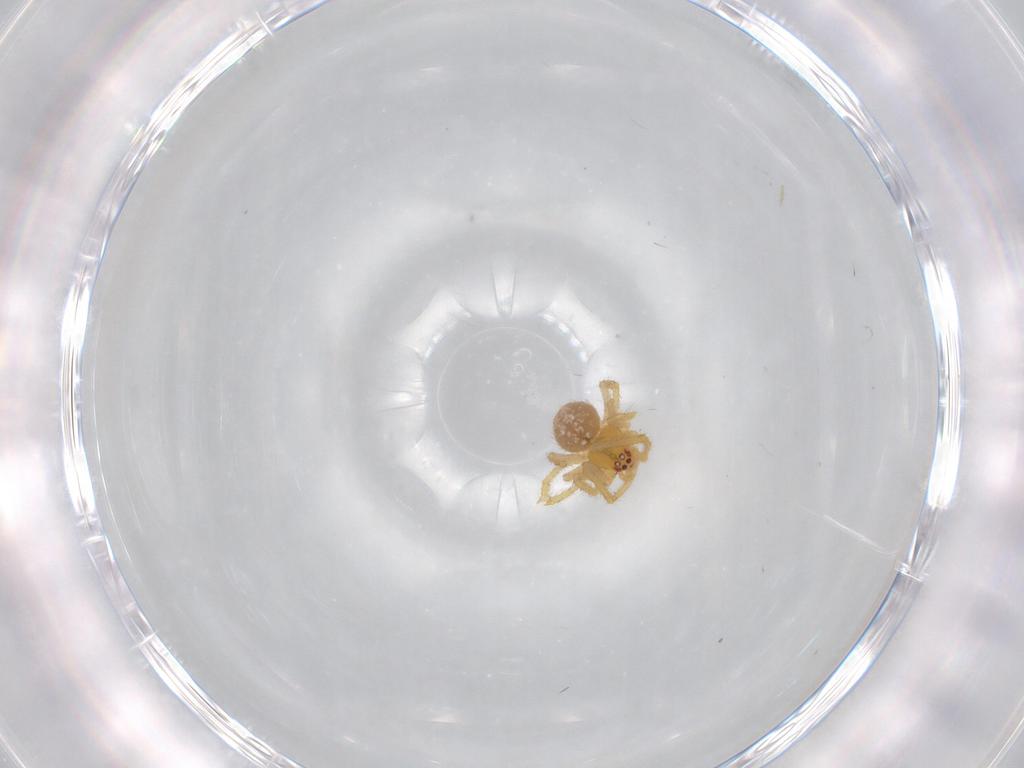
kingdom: Animalia
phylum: Arthropoda
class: Arachnida
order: Araneae
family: Theridiidae
